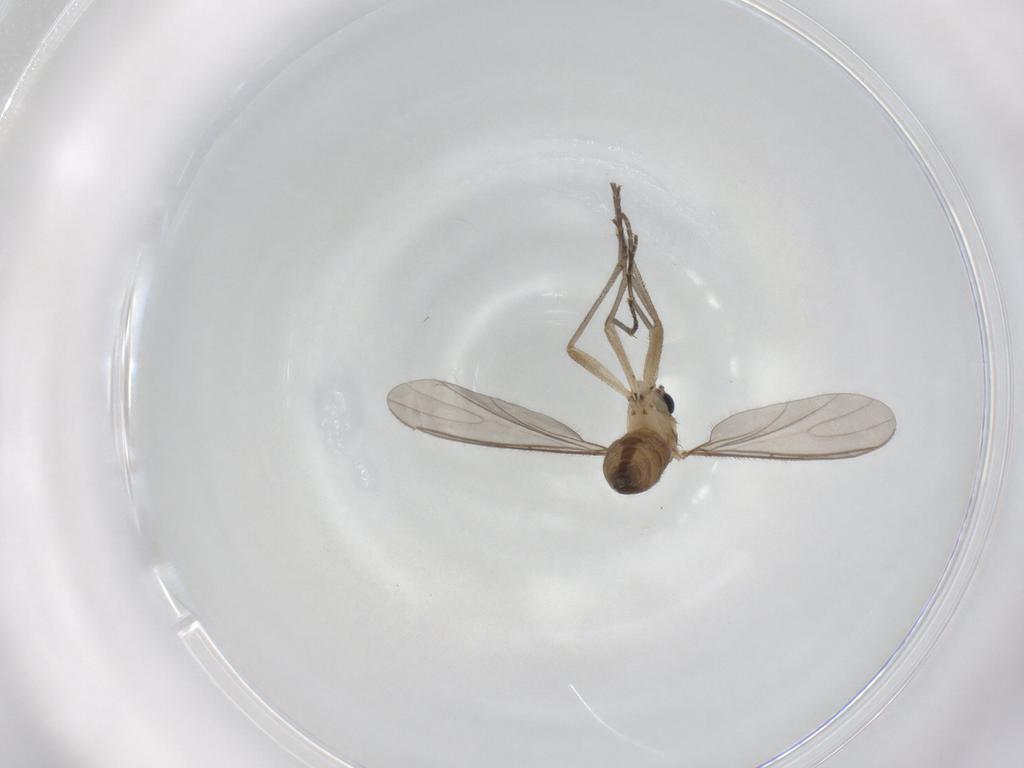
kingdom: Animalia
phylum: Arthropoda
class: Insecta
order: Diptera
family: Sciaridae
